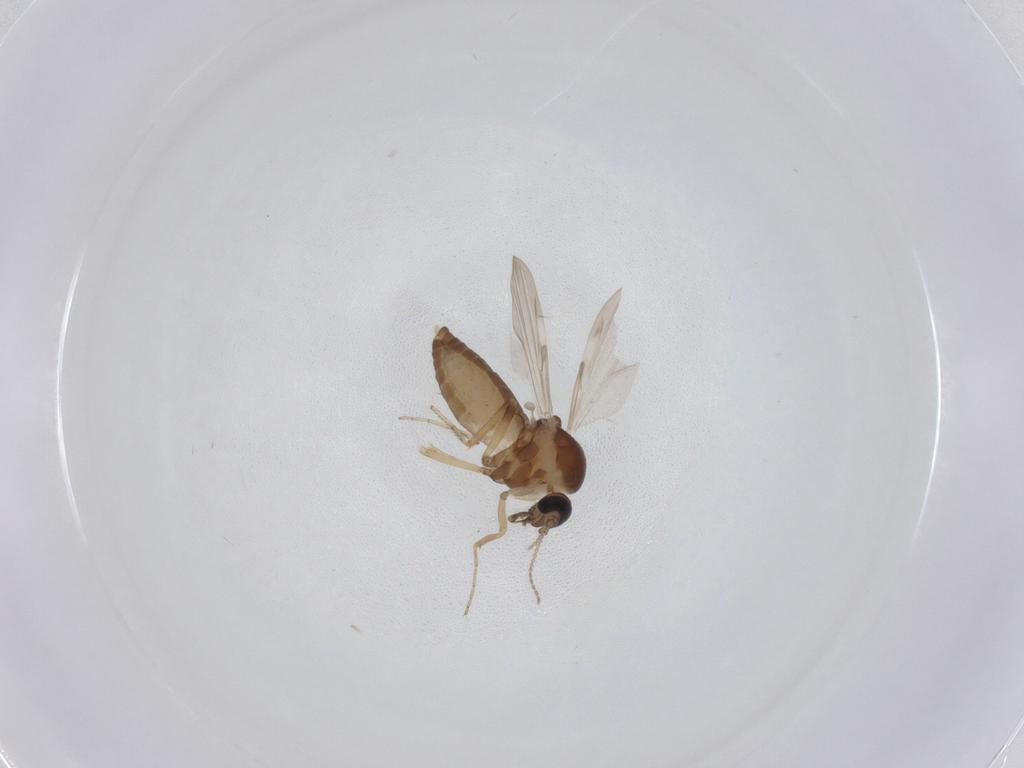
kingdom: Animalia
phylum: Arthropoda
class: Insecta
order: Diptera
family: Ceratopogonidae
